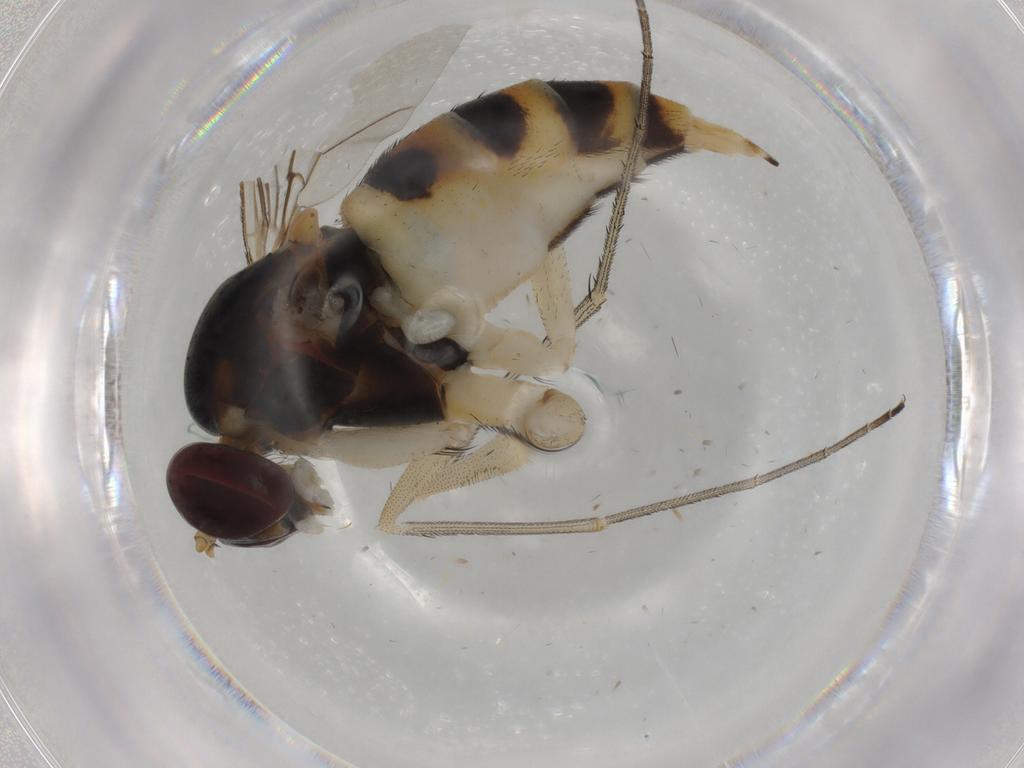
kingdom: Animalia
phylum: Arthropoda
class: Insecta
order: Diptera
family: Dolichopodidae
